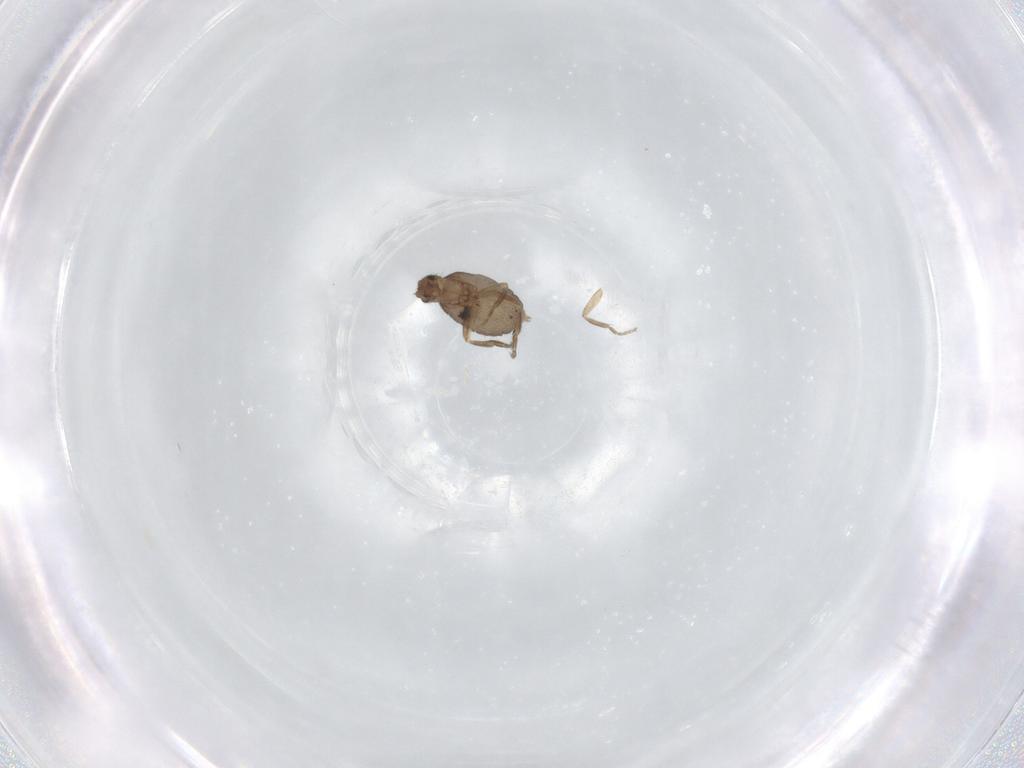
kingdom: Animalia
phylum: Arthropoda
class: Insecta
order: Diptera
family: Phoridae
